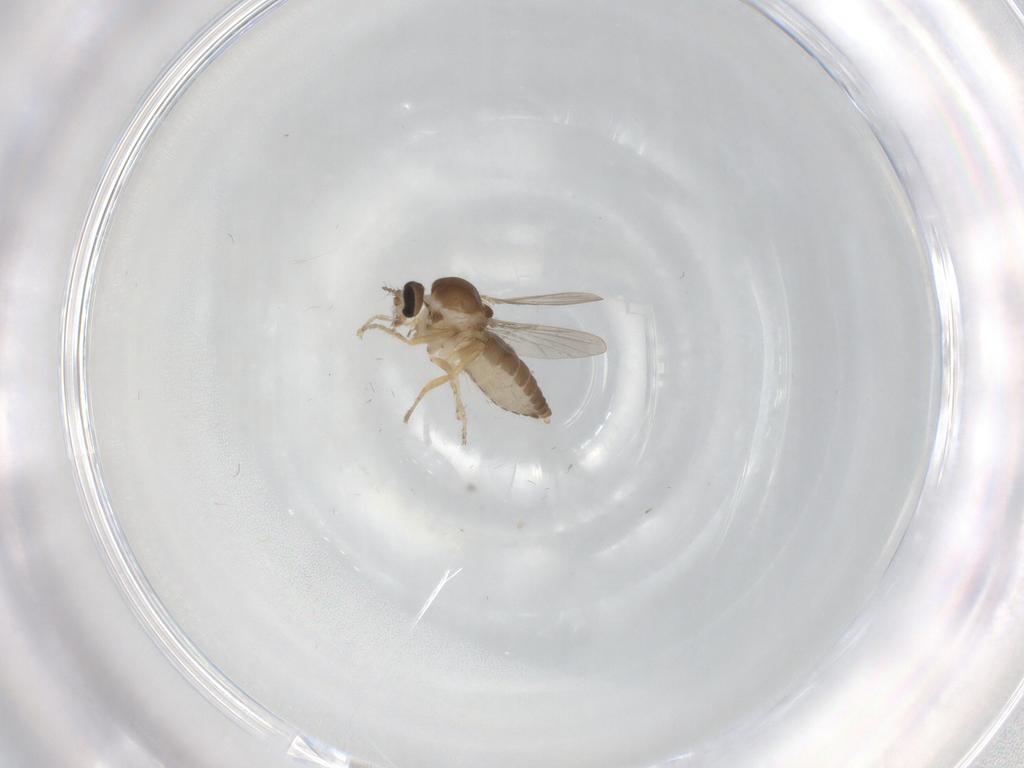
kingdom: Animalia
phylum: Arthropoda
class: Insecta
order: Diptera
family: Ceratopogonidae
